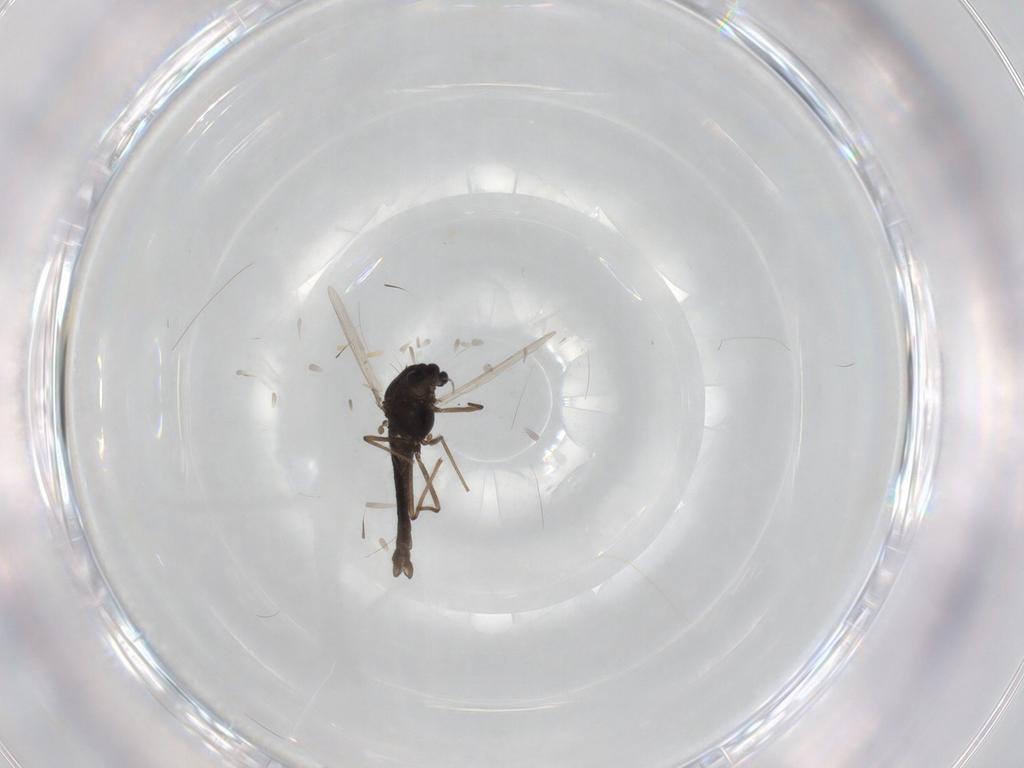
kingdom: Animalia
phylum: Arthropoda
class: Insecta
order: Diptera
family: Chironomidae
